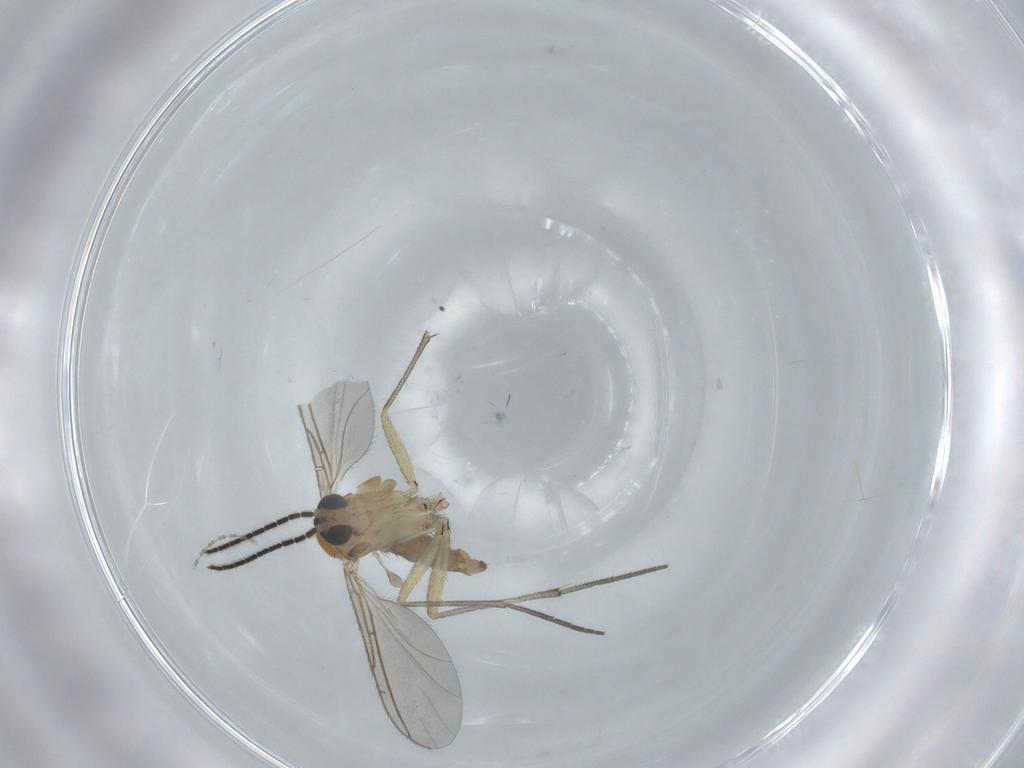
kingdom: Animalia
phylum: Arthropoda
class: Insecta
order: Diptera
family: Sciaridae
